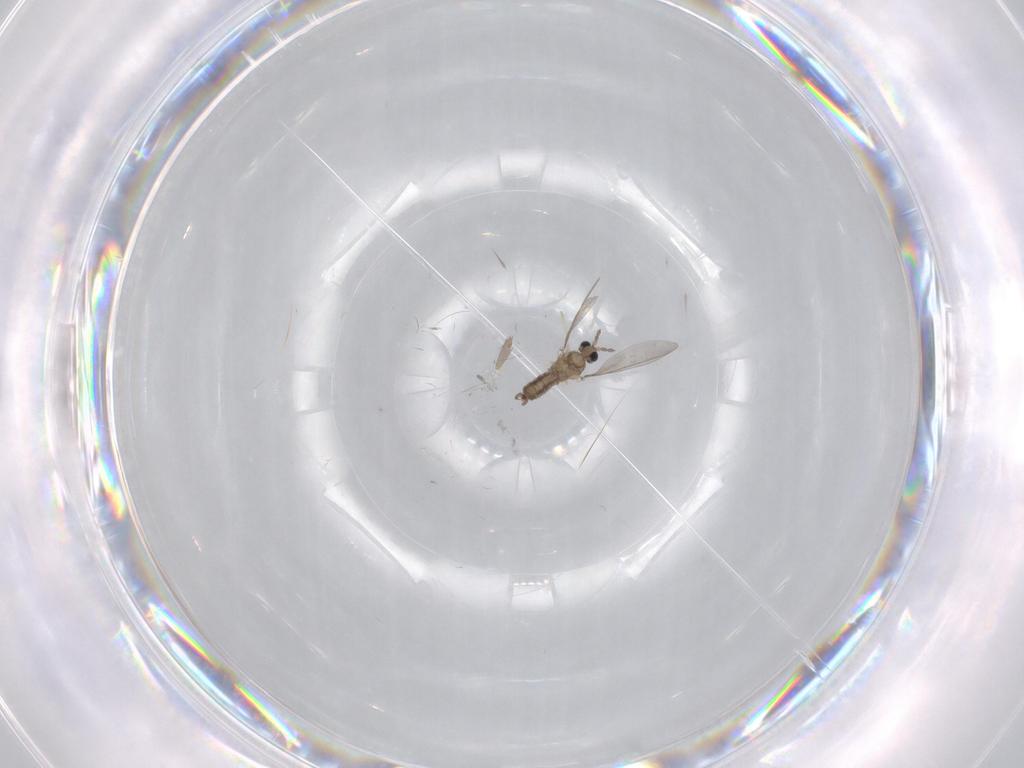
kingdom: Animalia
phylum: Arthropoda
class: Insecta
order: Diptera
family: Cecidomyiidae
